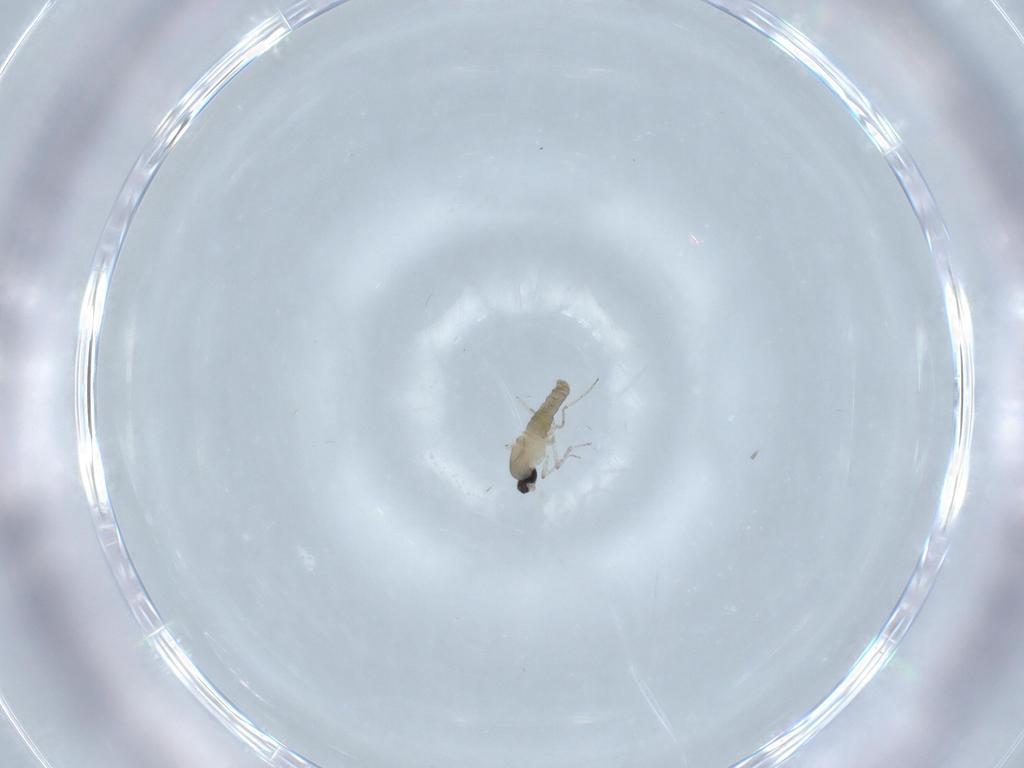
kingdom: Animalia
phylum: Arthropoda
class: Insecta
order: Diptera
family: Cecidomyiidae
